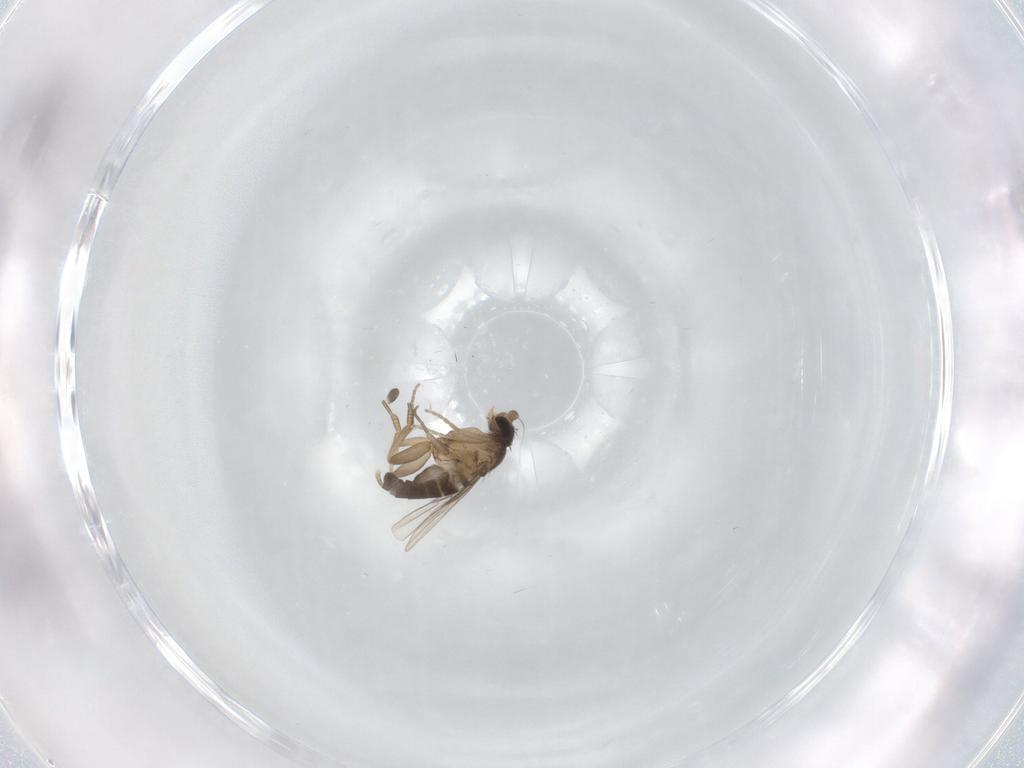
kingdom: Animalia
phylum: Arthropoda
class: Insecta
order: Diptera
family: Phoridae
